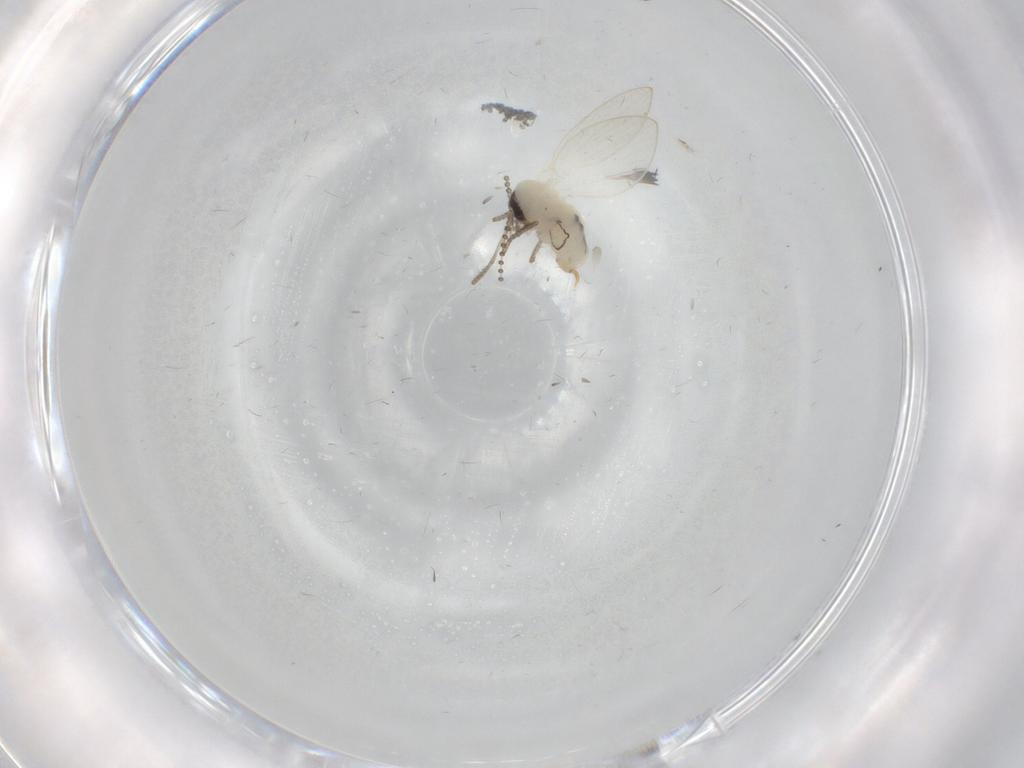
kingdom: Animalia
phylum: Arthropoda
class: Insecta
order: Diptera
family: Psychodidae
